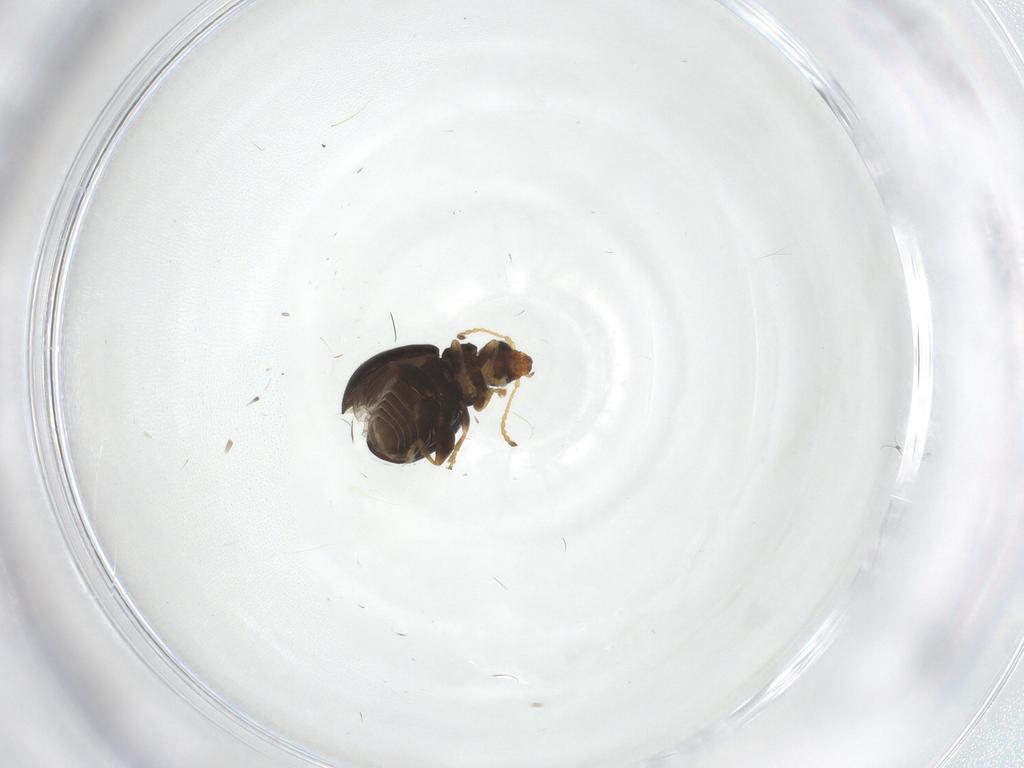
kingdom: Animalia
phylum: Arthropoda
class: Insecta
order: Coleoptera
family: Chrysomelidae
